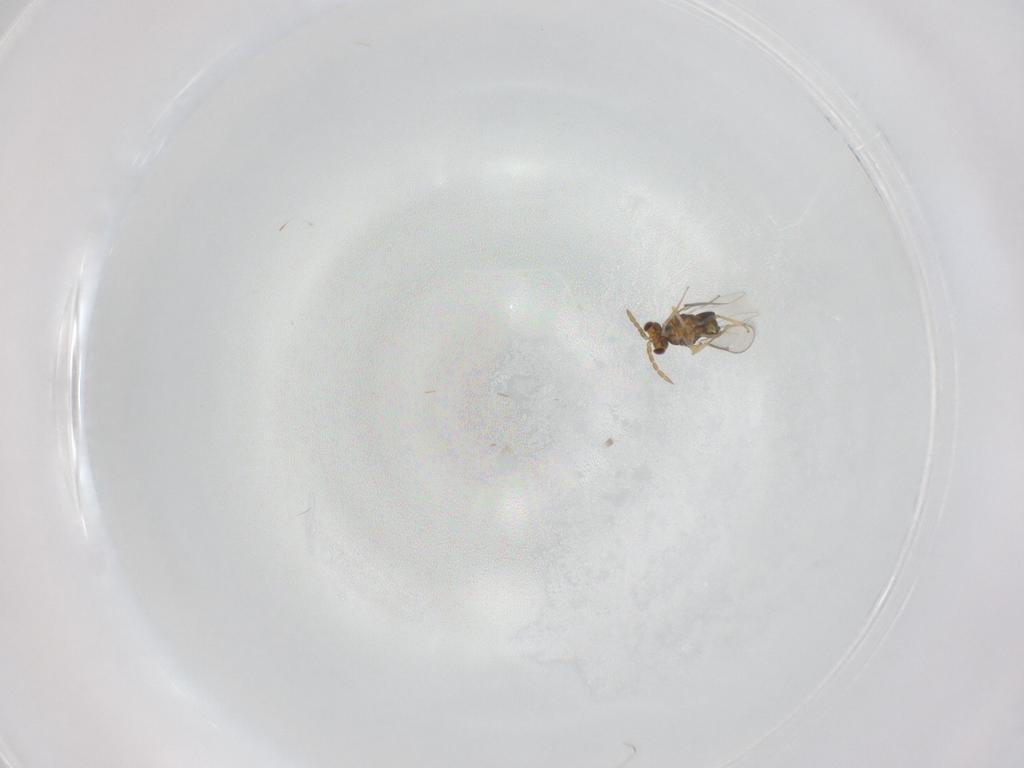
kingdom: Animalia
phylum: Arthropoda
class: Insecta
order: Hymenoptera
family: Aphelinidae
